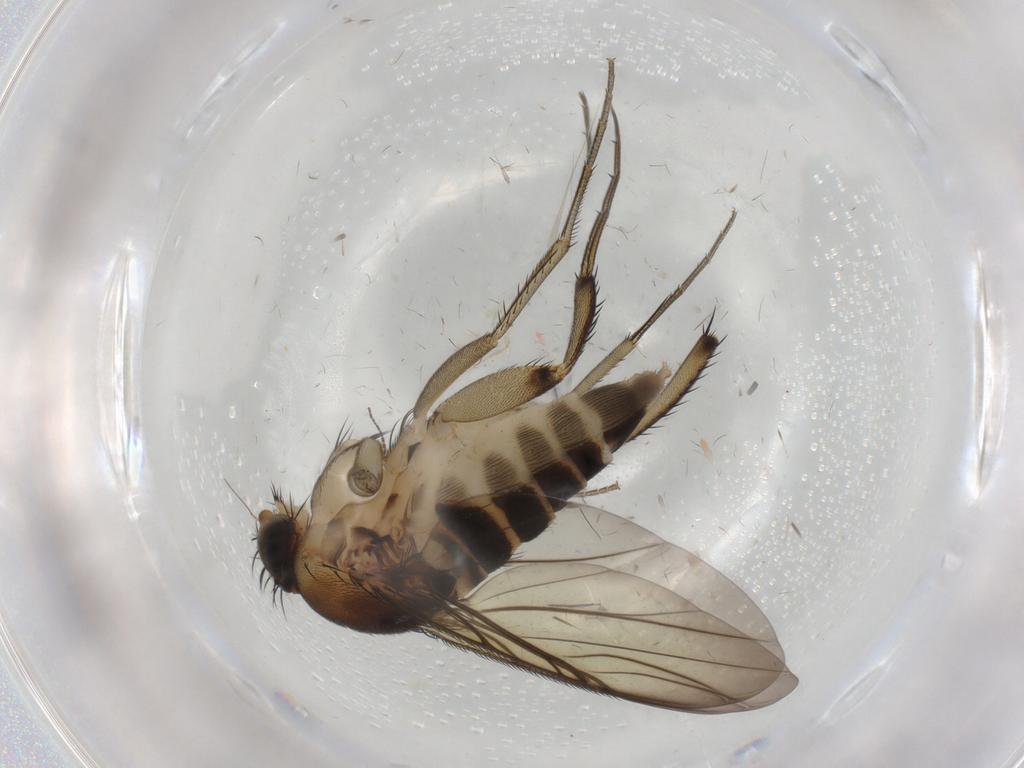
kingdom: Animalia
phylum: Arthropoda
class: Insecta
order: Diptera
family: Phoridae
